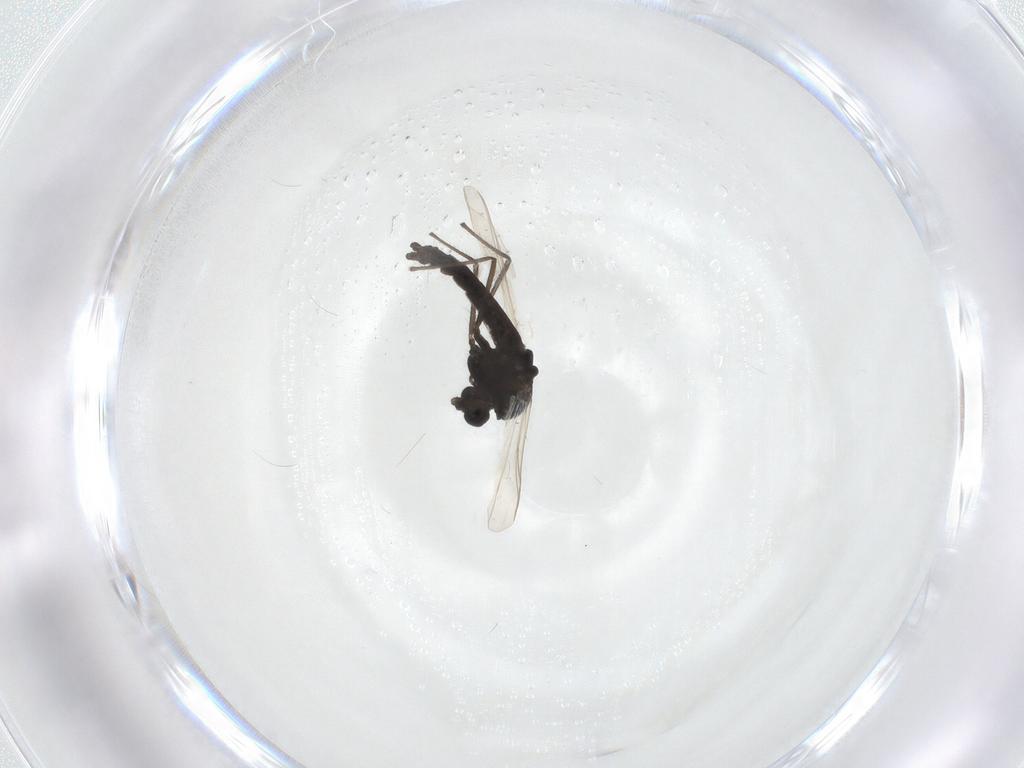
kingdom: Animalia
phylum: Arthropoda
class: Insecta
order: Diptera
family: Chironomidae
